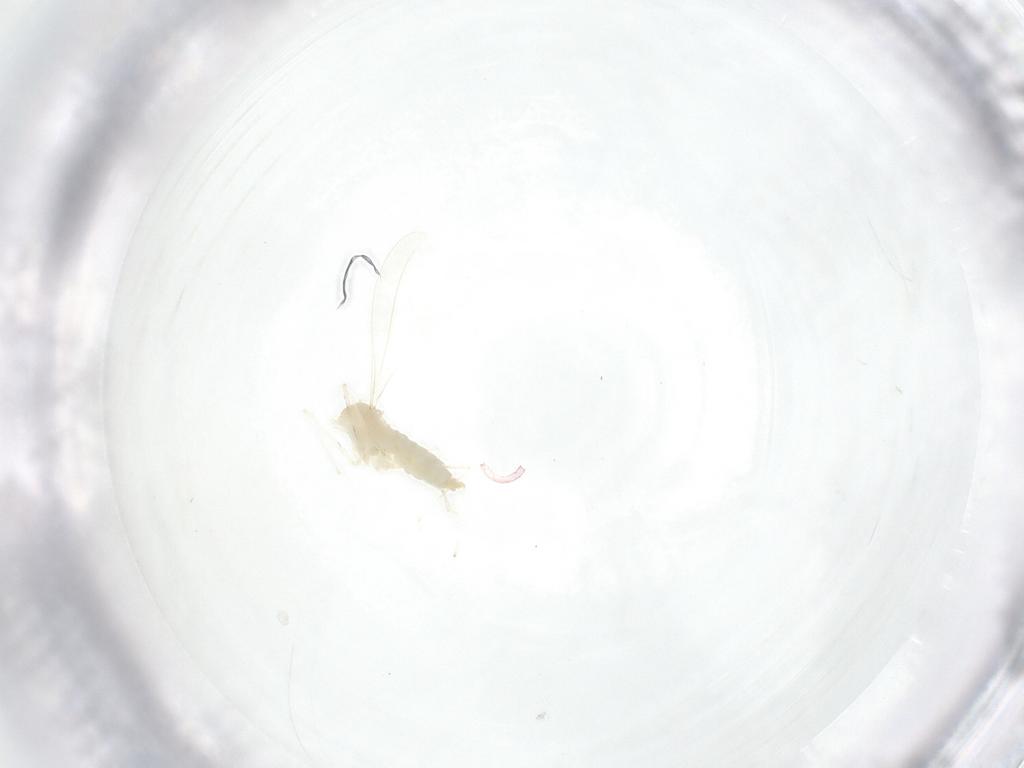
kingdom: Animalia
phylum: Arthropoda
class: Insecta
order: Diptera
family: Cecidomyiidae
